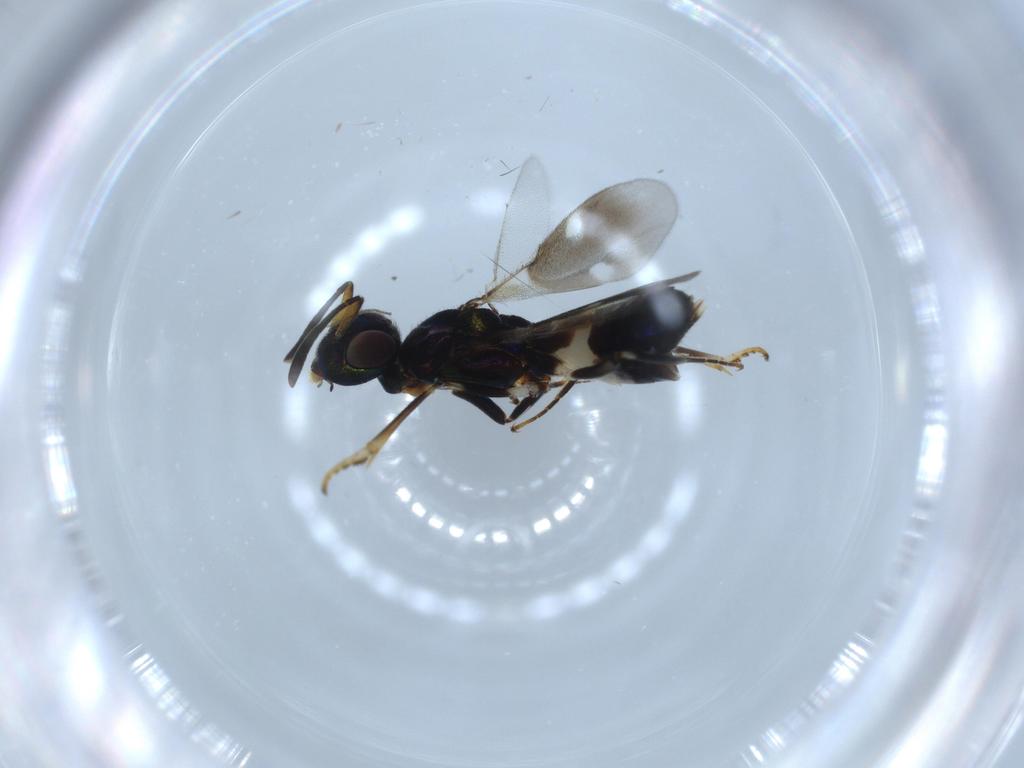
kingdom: Animalia
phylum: Arthropoda
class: Insecta
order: Hymenoptera
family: Eupelmidae
